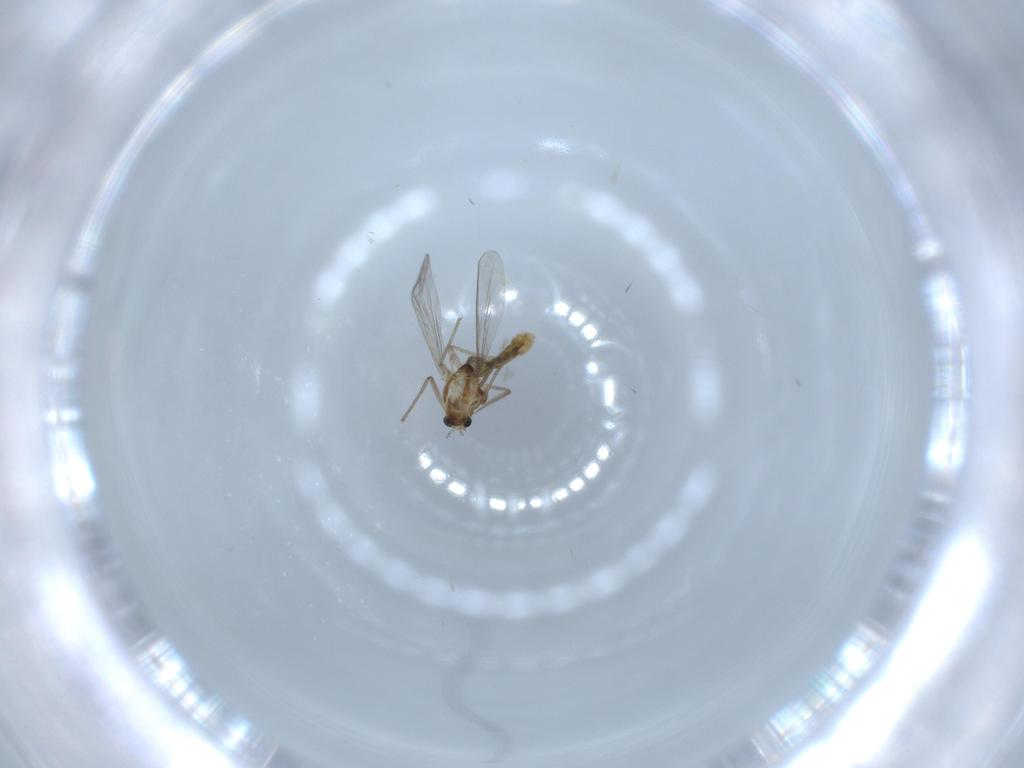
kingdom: Animalia
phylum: Arthropoda
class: Insecta
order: Diptera
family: Chironomidae
